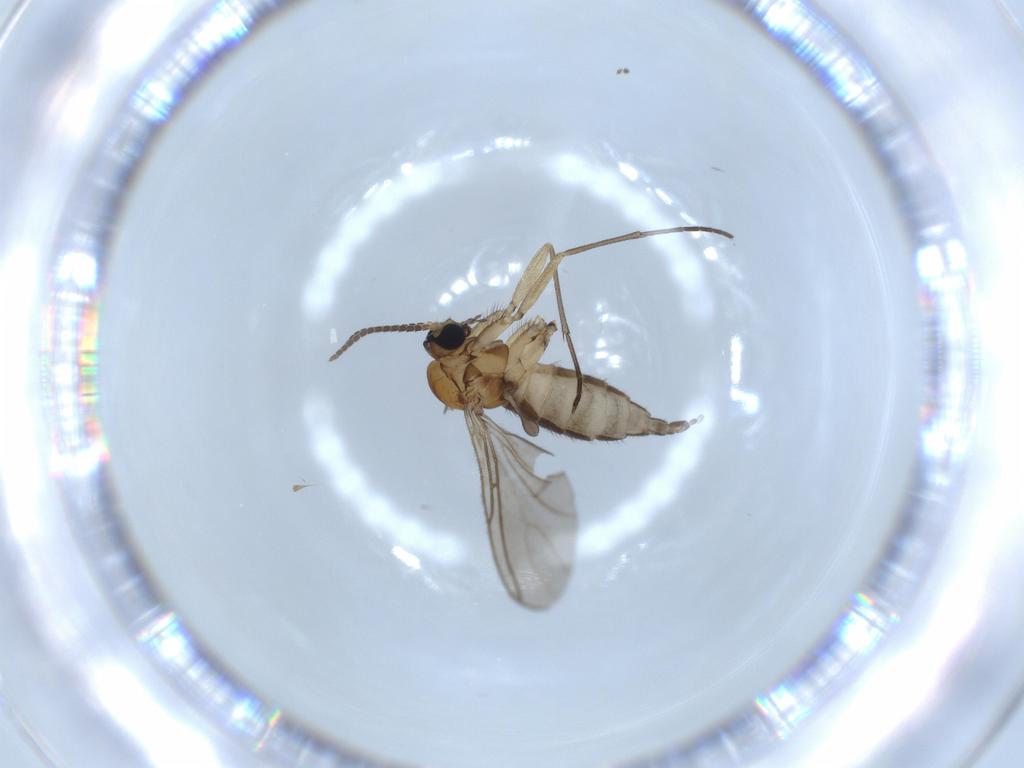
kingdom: Animalia
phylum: Arthropoda
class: Insecta
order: Diptera
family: Sciaridae
